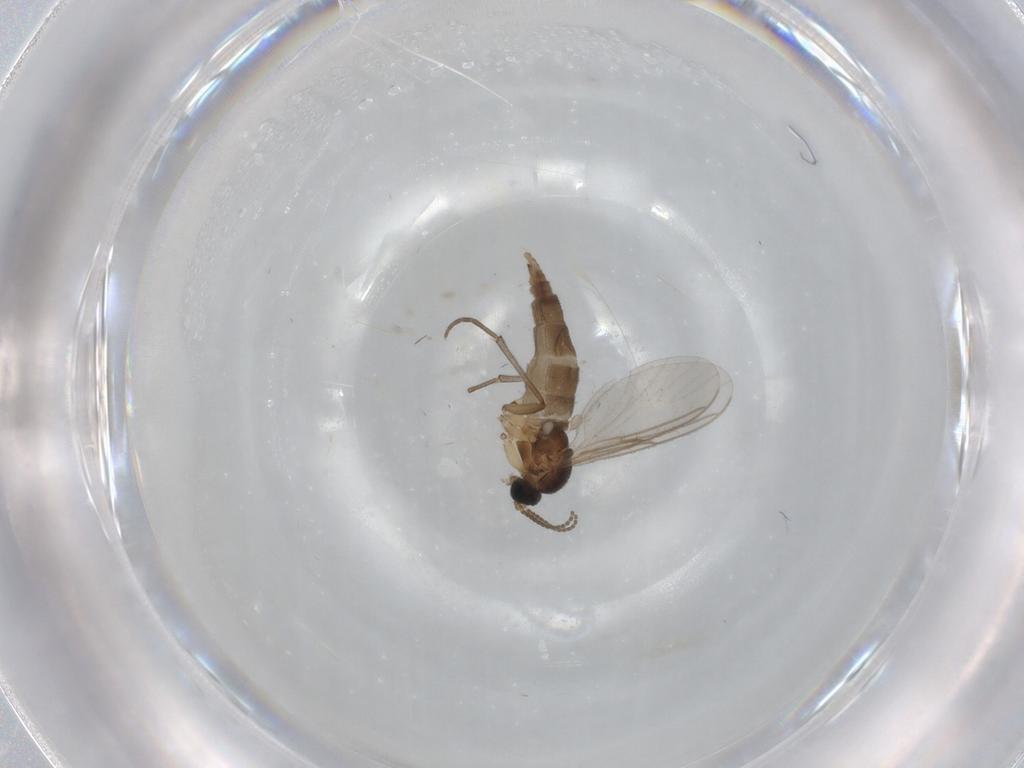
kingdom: Animalia
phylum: Arthropoda
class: Insecta
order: Diptera
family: Sciaridae
